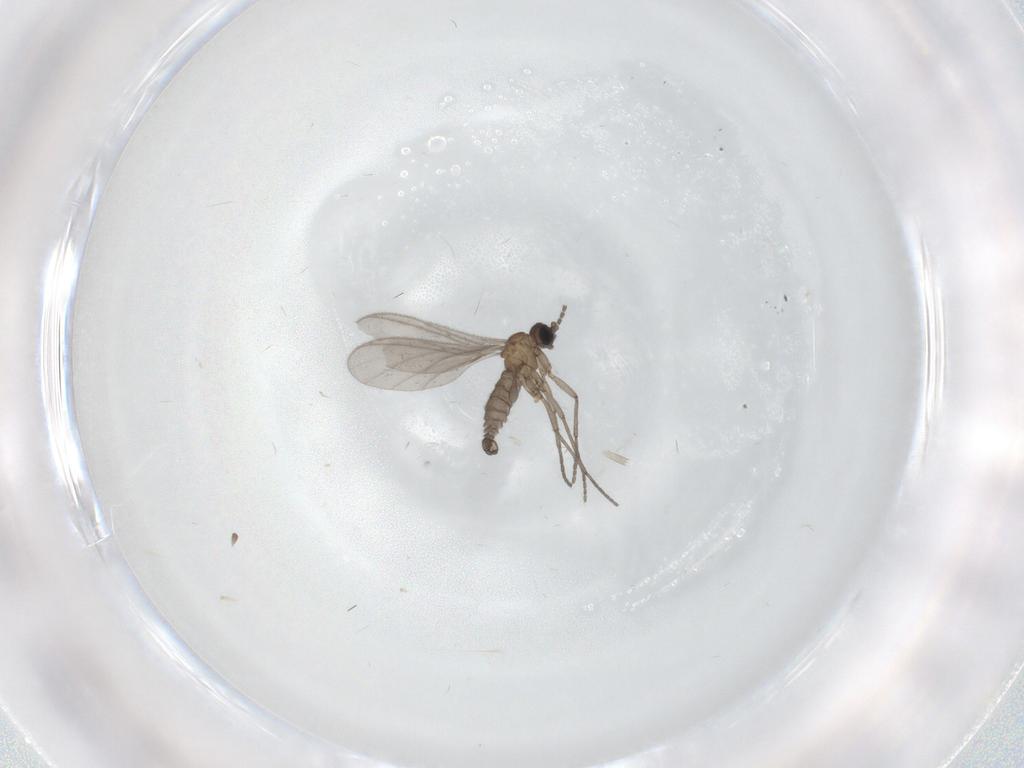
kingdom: Animalia
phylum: Arthropoda
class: Insecta
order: Diptera
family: Sciaridae
